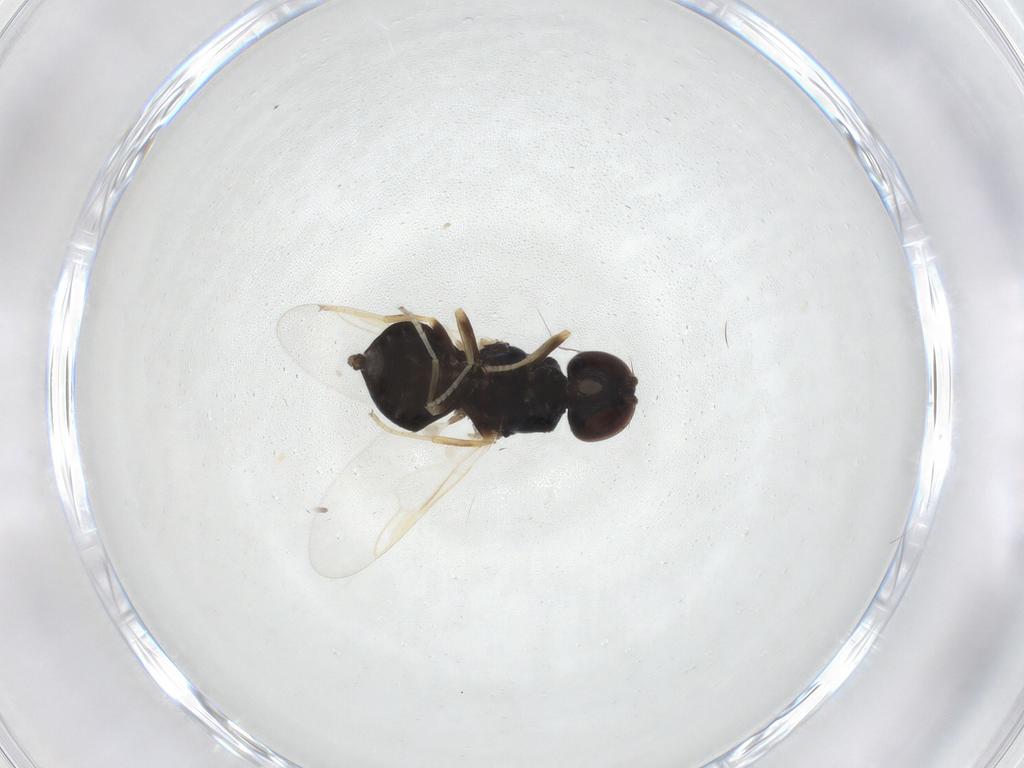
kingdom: Animalia
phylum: Arthropoda
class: Insecta
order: Diptera
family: Stratiomyidae
